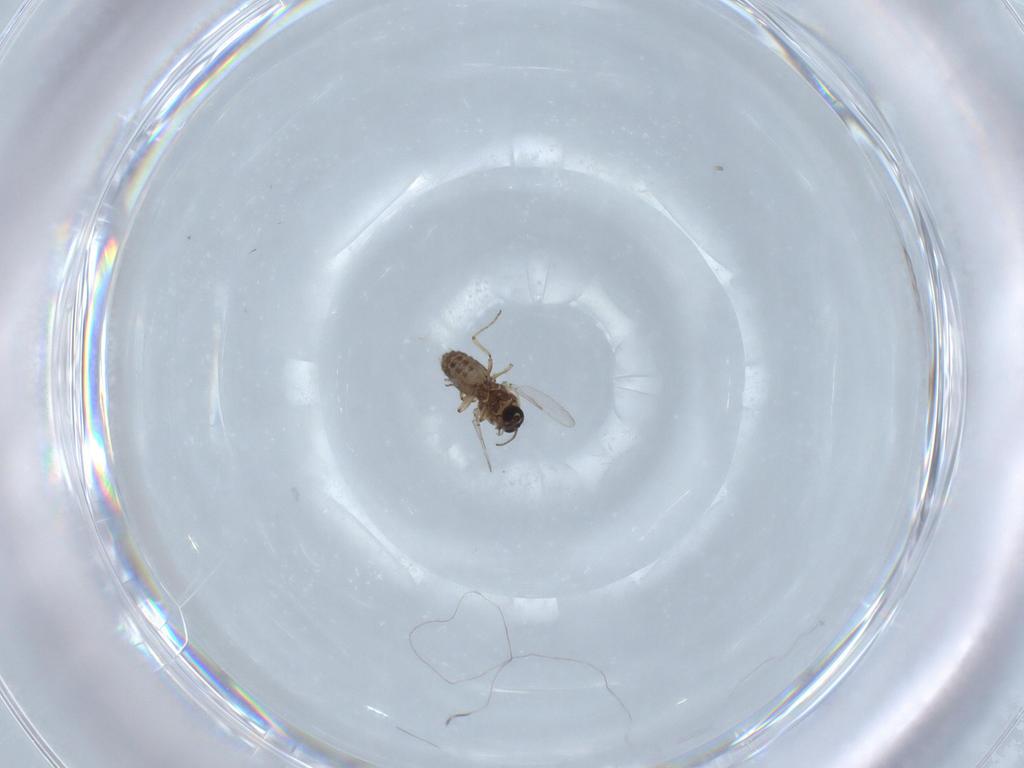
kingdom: Animalia
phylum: Arthropoda
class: Insecta
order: Diptera
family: Ceratopogonidae
